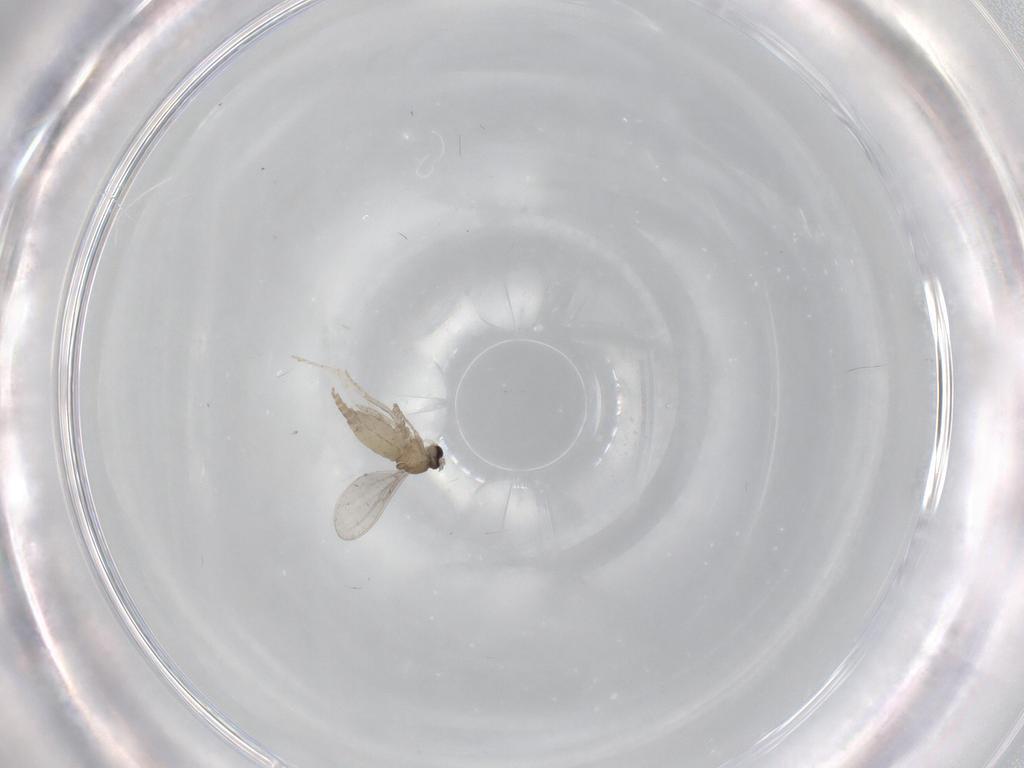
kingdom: Animalia
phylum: Arthropoda
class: Insecta
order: Diptera
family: Cecidomyiidae
